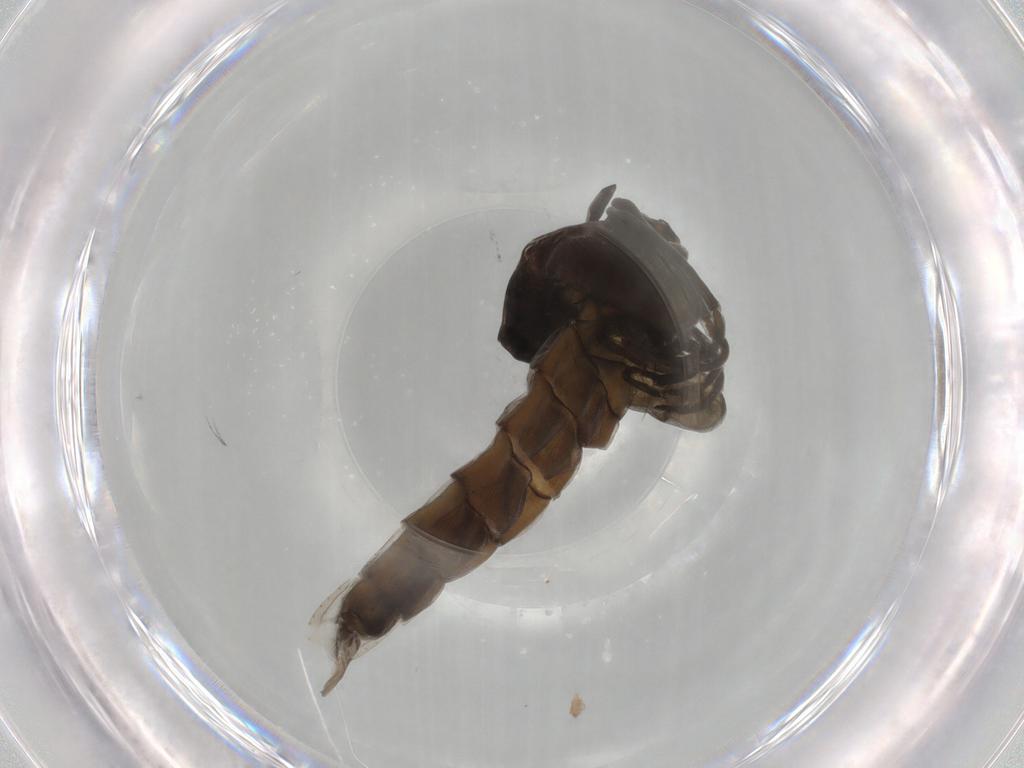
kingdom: Animalia
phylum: Arthropoda
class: Insecta
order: Diptera
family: Chironomidae
